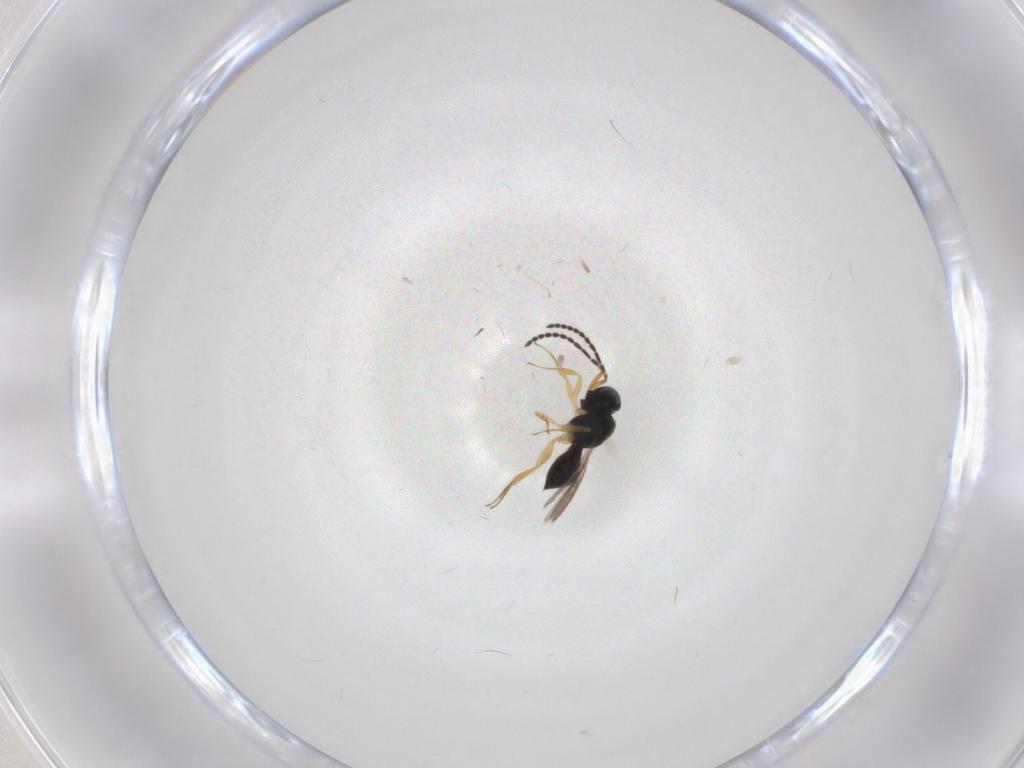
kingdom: Animalia
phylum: Arthropoda
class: Insecta
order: Hymenoptera
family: Scelionidae
